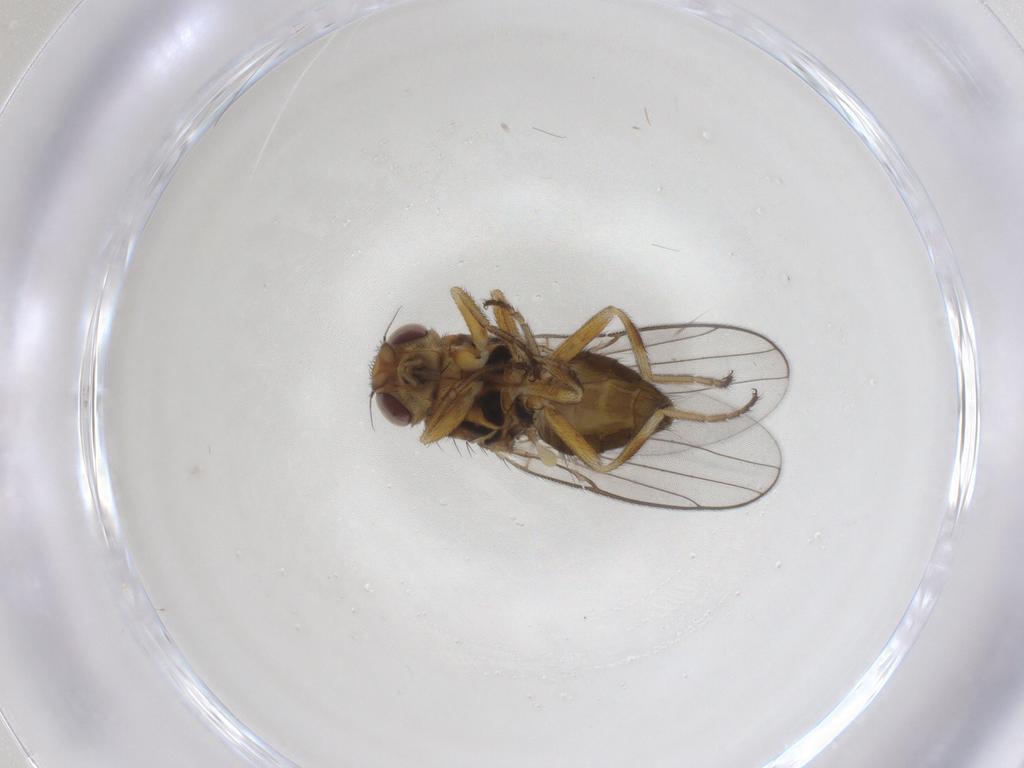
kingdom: Animalia
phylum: Arthropoda
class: Insecta
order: Diptera
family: Chloropidae
